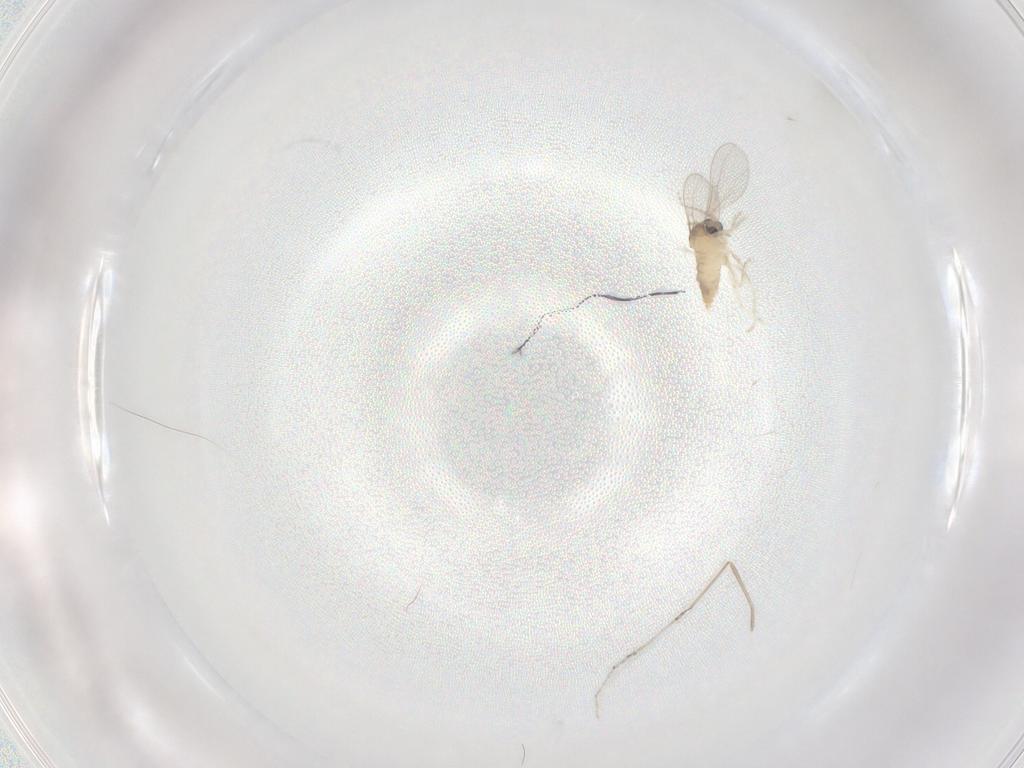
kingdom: Animalia
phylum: Arthropoda
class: Insecta
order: Diptera
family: Cecidomyiidae
